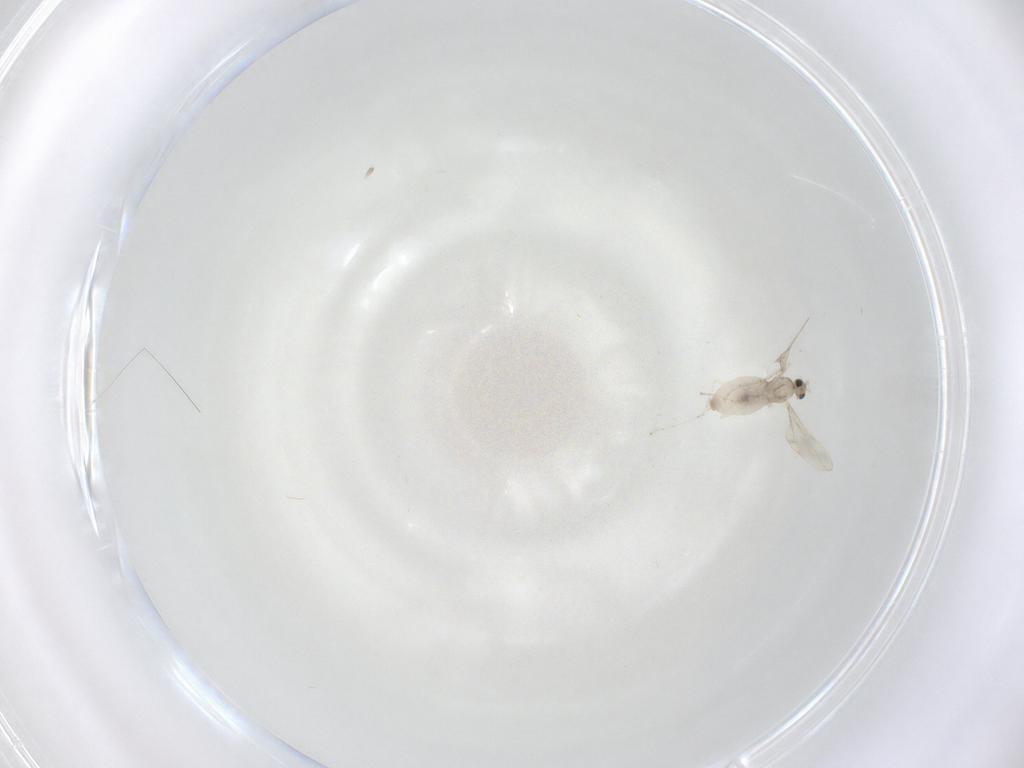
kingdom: Animalia
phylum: Arthropoda
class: Insecta
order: Diptera
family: Cecidomyiidae
